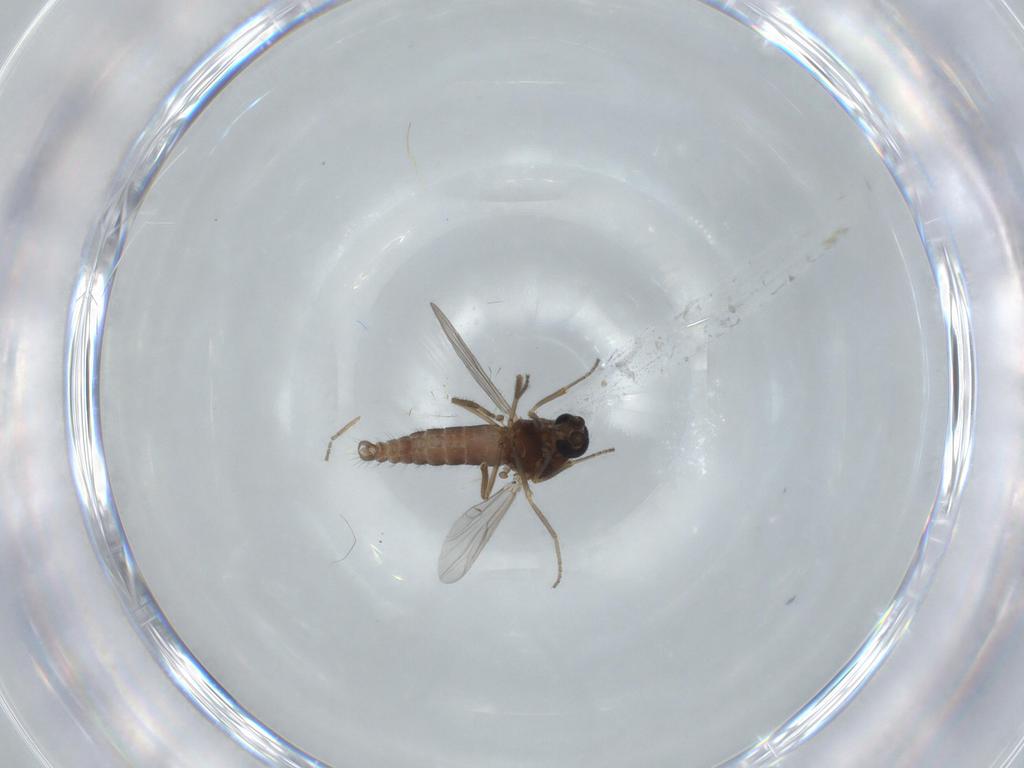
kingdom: Animalia
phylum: Arthropoda
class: Insecta
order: Diptera
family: Ceratopogonidae
